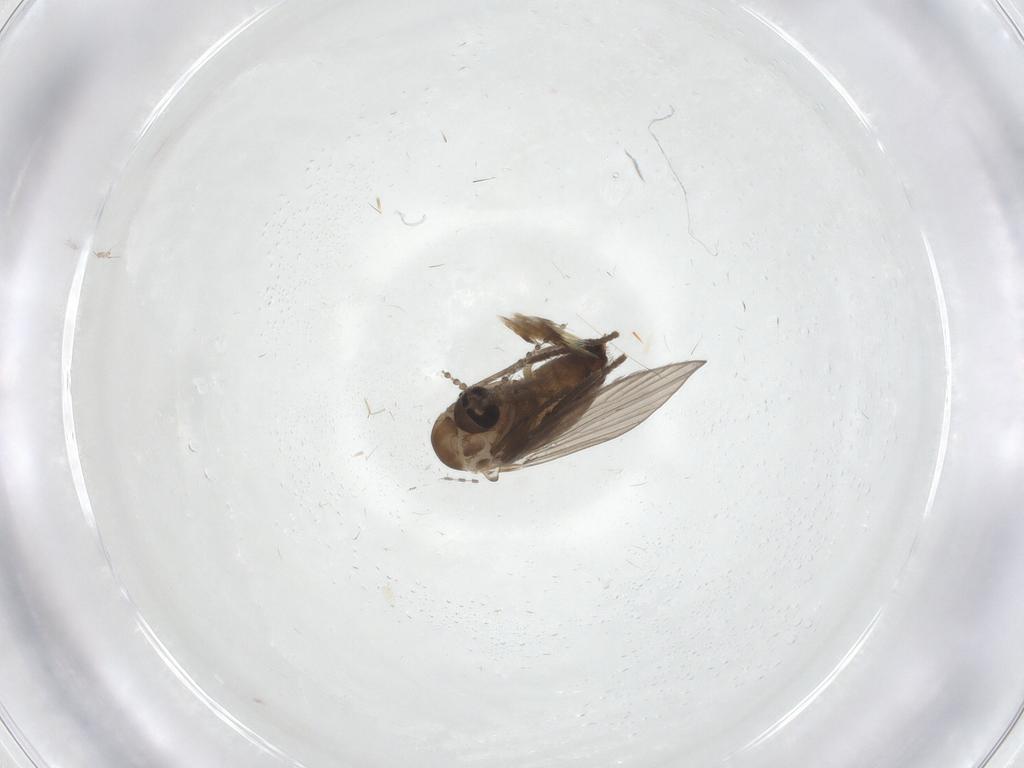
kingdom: Animalia
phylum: Arthropoda
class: Insecta
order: Diptera
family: Psychodidae
